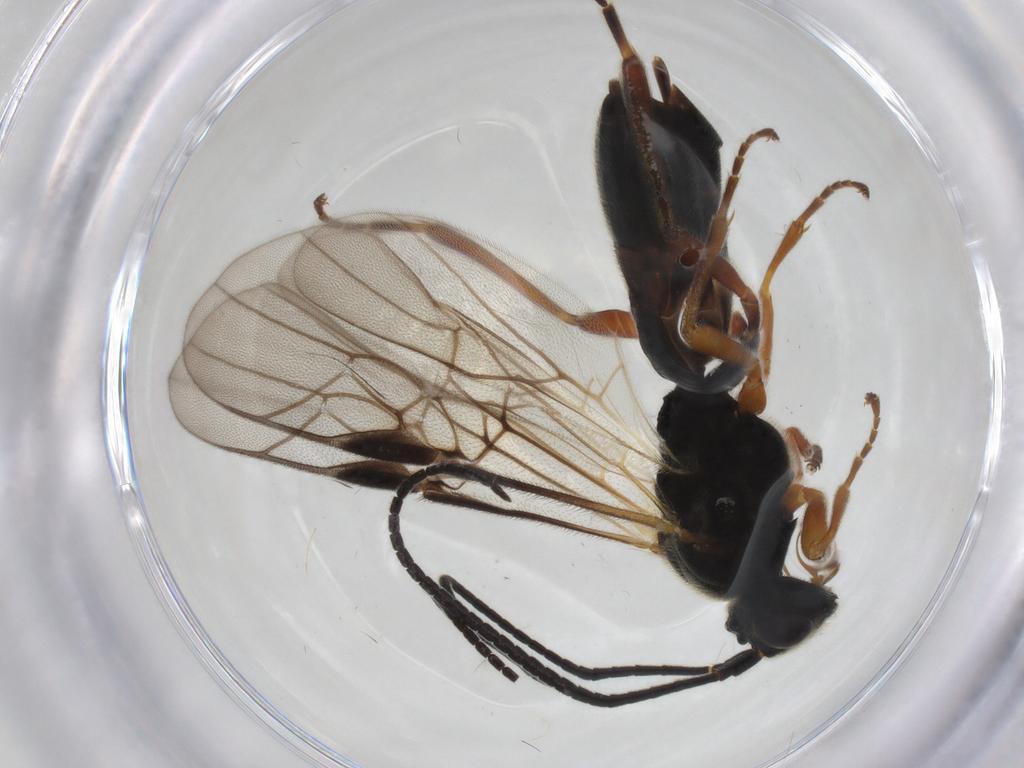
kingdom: Animalia
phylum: Arthropoda
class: Insecta
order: Hymenoptera
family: Braconidae
